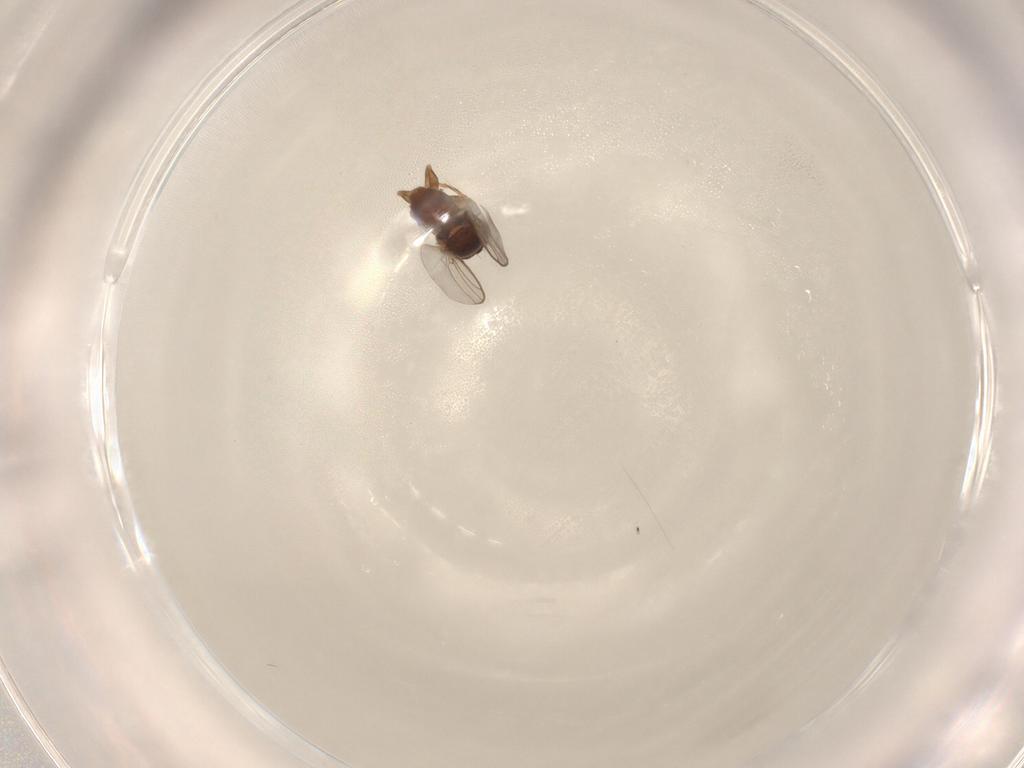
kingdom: Animalia
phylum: Arthropoda
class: Insecta
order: Diptera
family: Chloropidae
